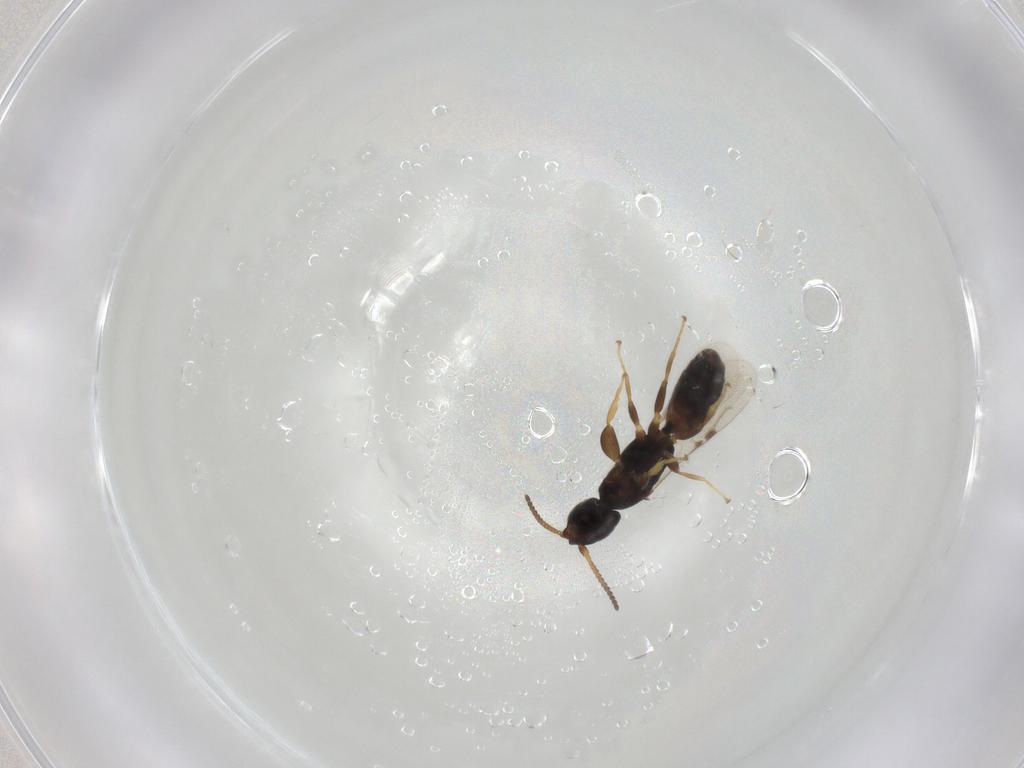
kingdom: Animalia
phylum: Arthropoda
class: Insecta
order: Hymenoptera
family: Bethylidae
